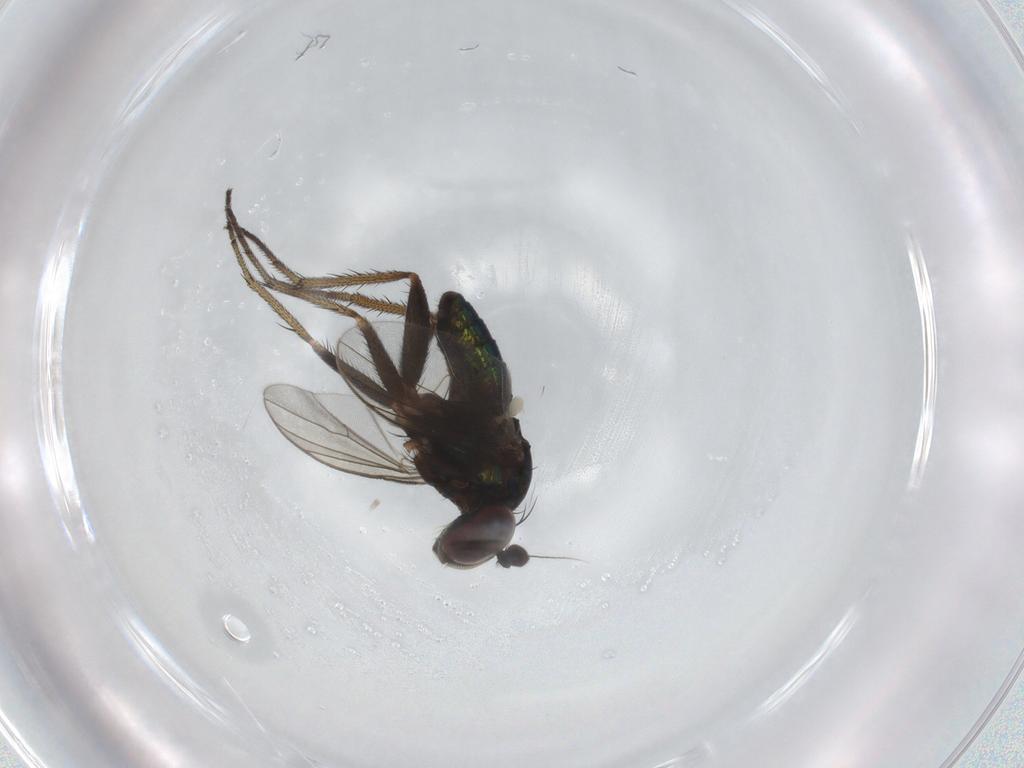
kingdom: Animalia
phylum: Arthropoda
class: Insecta
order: Diptera
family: Dolichopodidae
